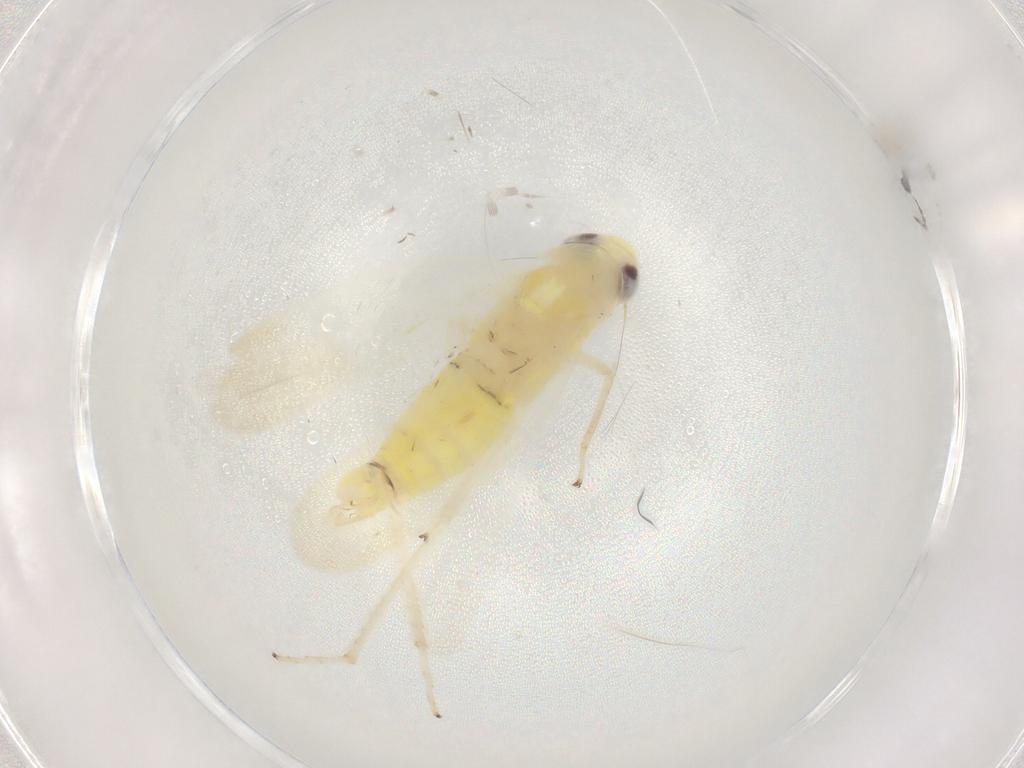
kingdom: Animalia
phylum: Arthropoda
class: Insecta
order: Hemiptera
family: Cicadellidae
